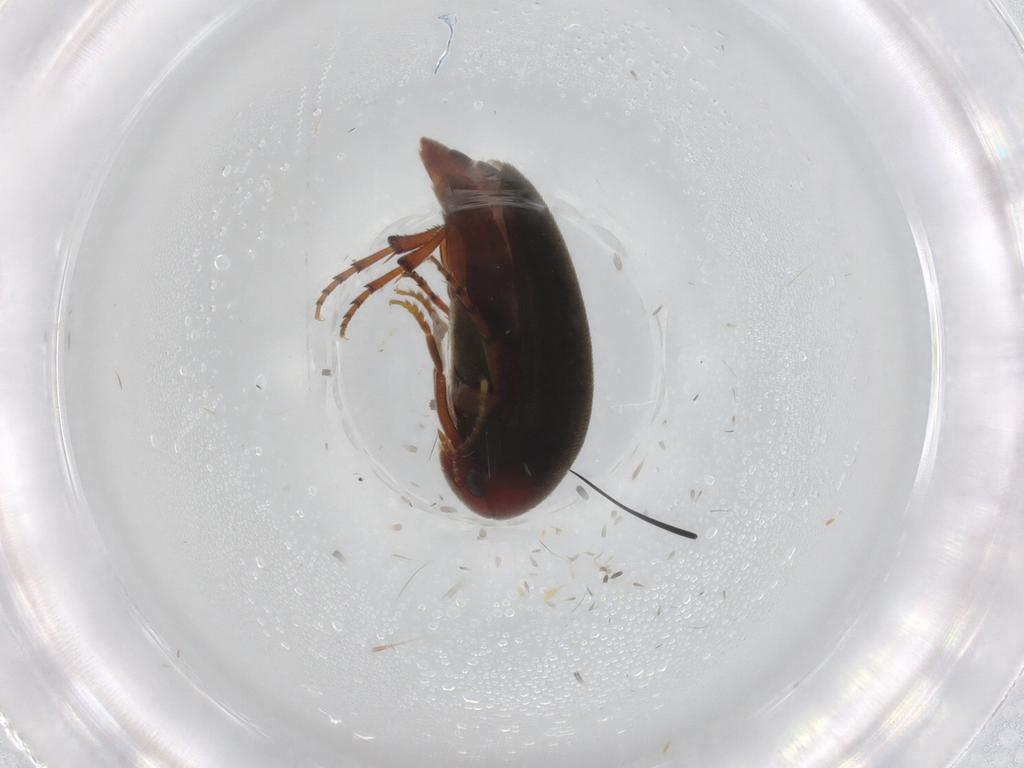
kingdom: Animalia
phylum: Arthropoda
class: Insecta
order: Coleoptera
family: Eucinetidae
